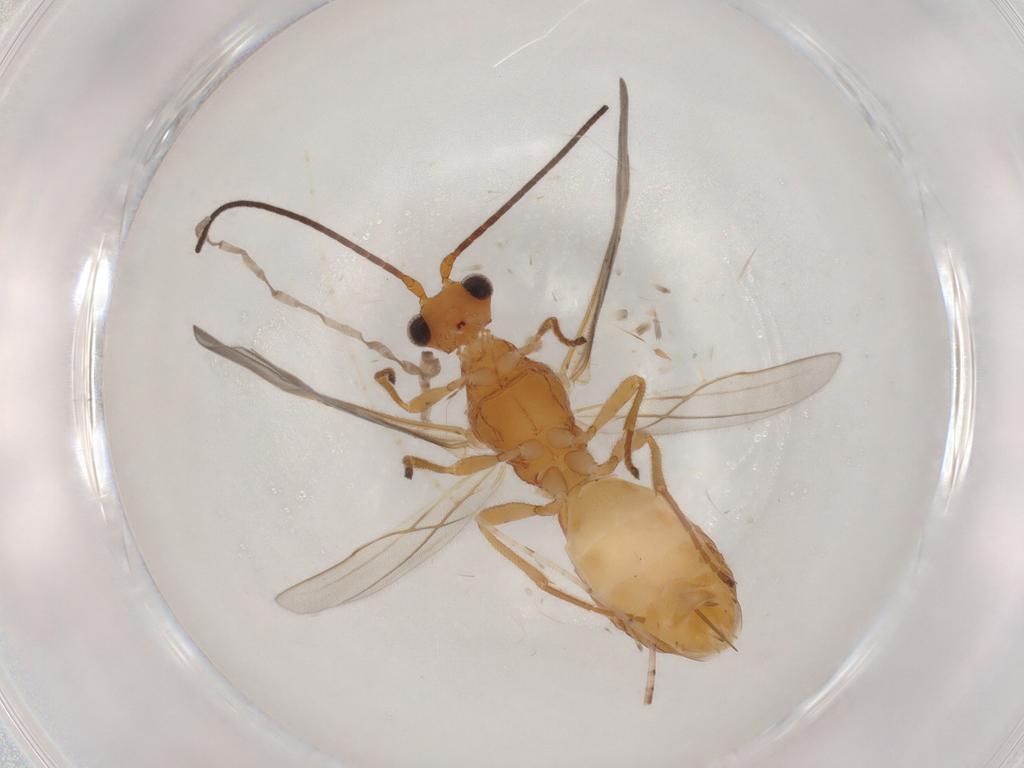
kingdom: Animalia
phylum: Arthropoda
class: Insecta
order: Hymenoptera
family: Braconidae
